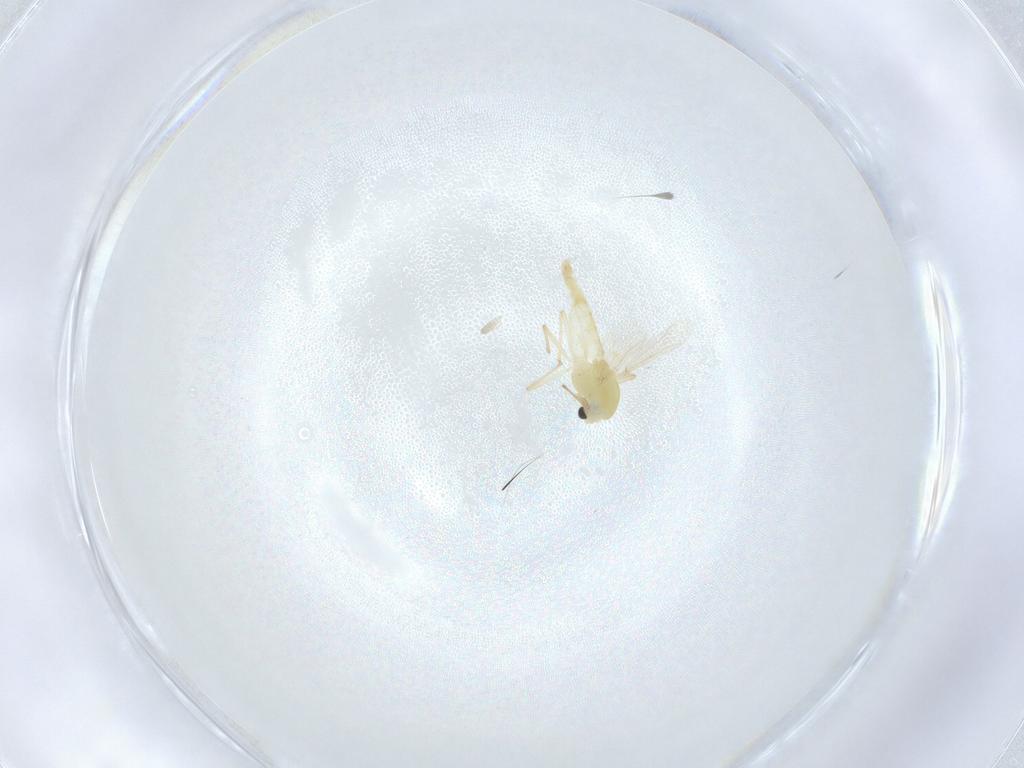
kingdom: Animalia
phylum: Arthropoda
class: Insecta
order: Diptera
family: Chironomidae
